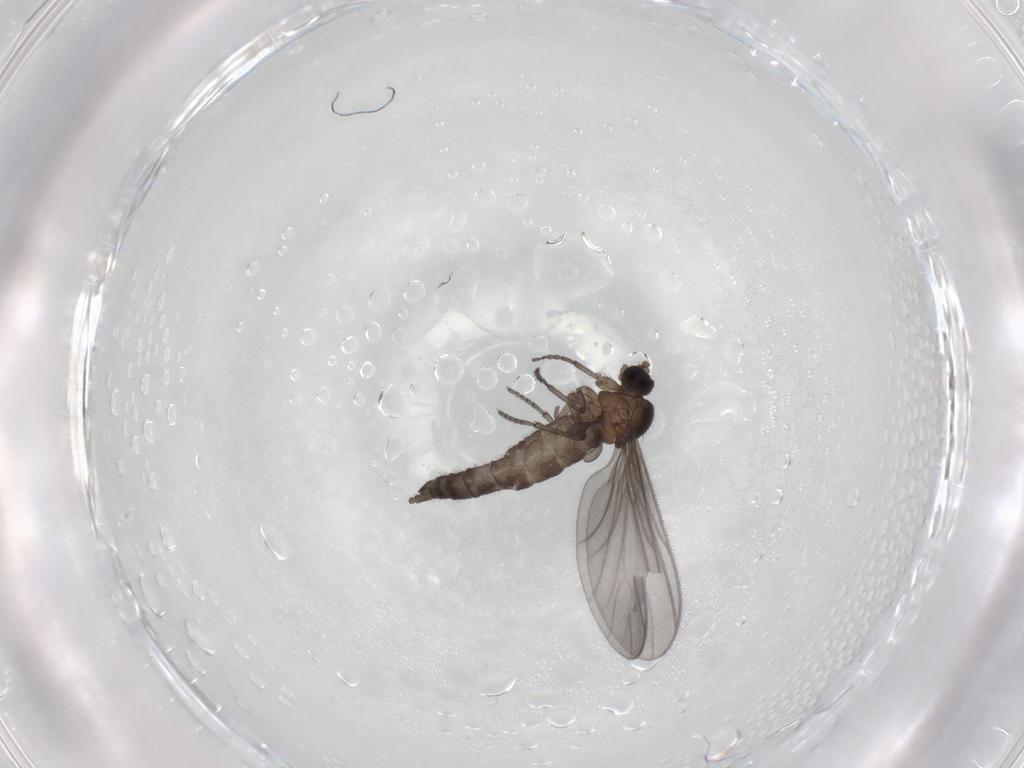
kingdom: Animalia
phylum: Arthropoda
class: Insecta
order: Diptera
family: Sciaridae
